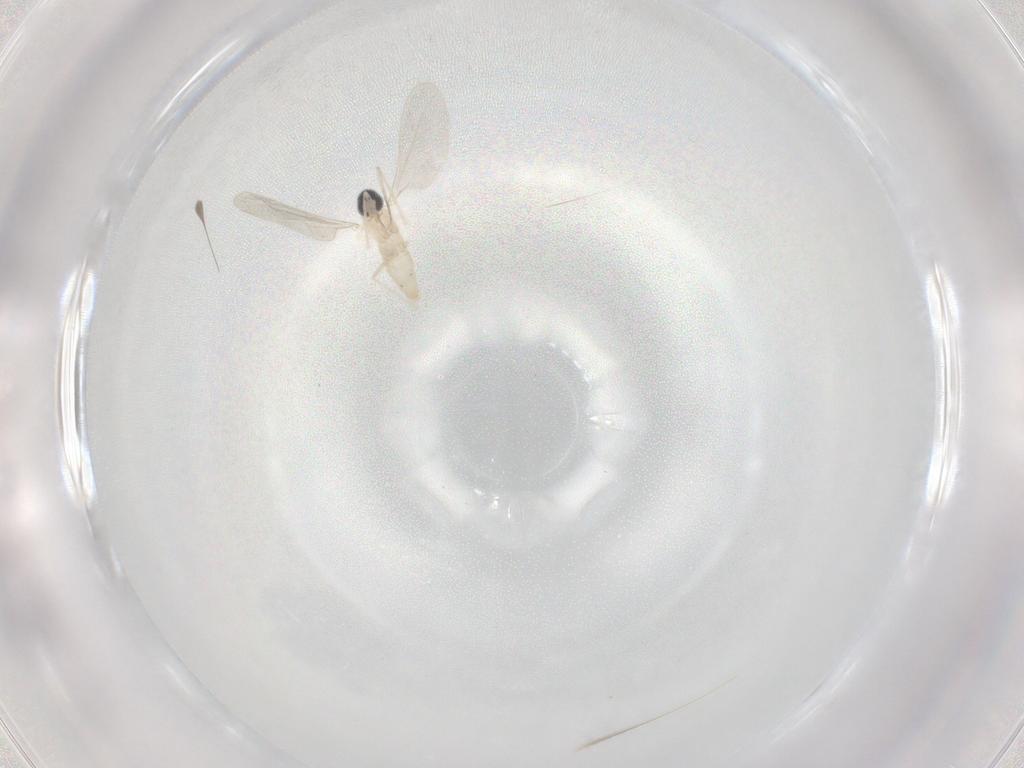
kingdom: Animalia
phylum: Arthropoda
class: Insecta
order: Diptera
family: Cecidomyiidae
